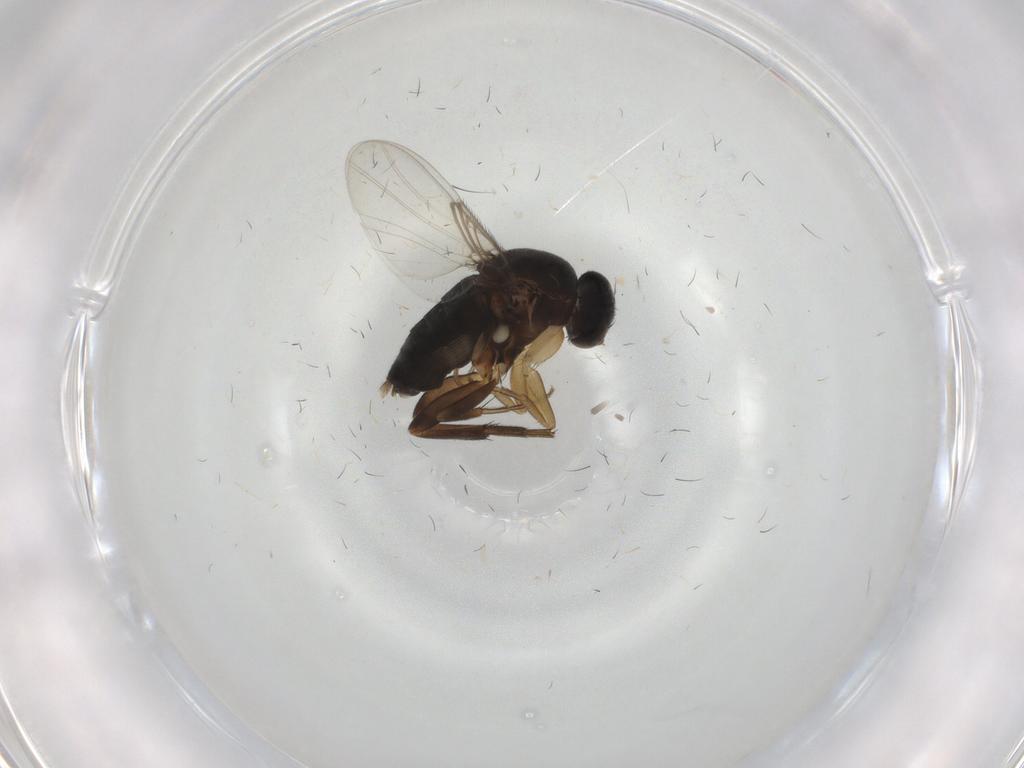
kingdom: Animalia
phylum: Arthropoda
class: Insecta
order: Diptera
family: Phoridae
